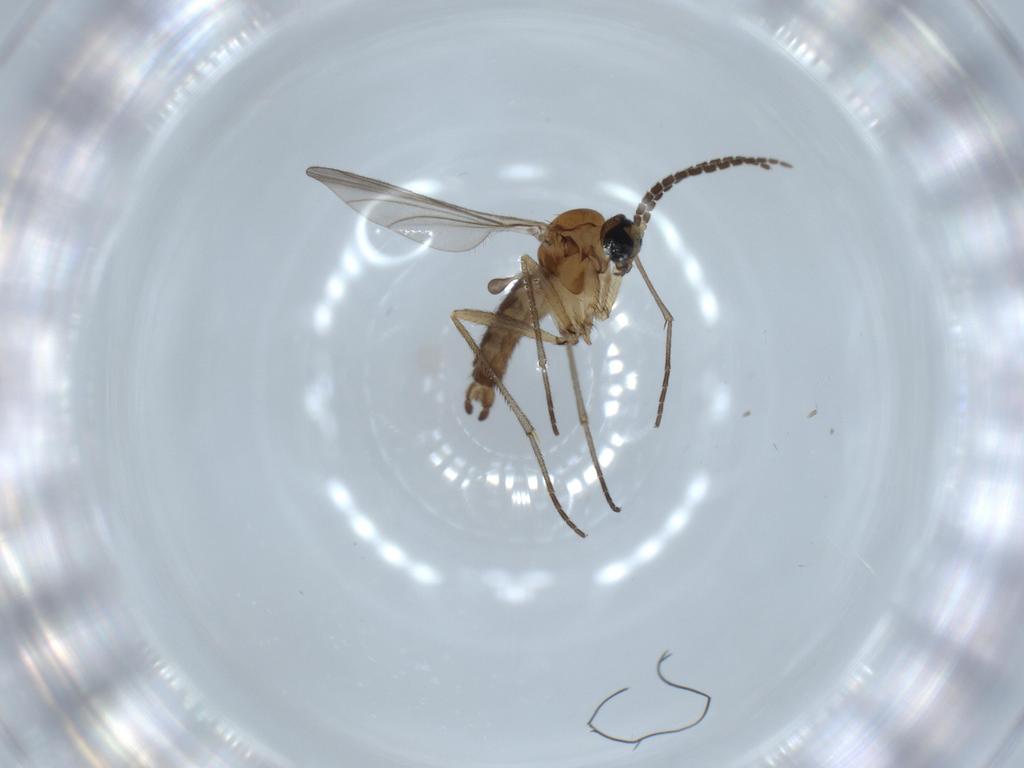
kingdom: Animalia
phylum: Arthropoda
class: Insecta
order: Diptera
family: Sciaridae
